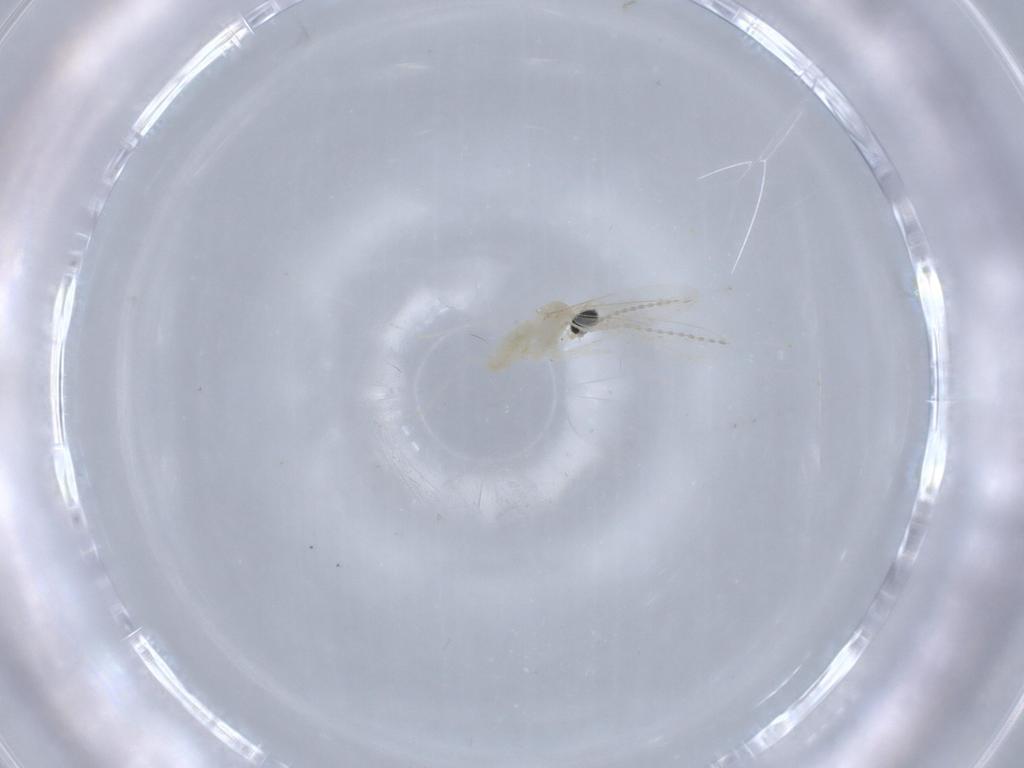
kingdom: Animalia
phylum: Arthropoda
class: Insecta
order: Diptera
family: Cecidomyiidae
